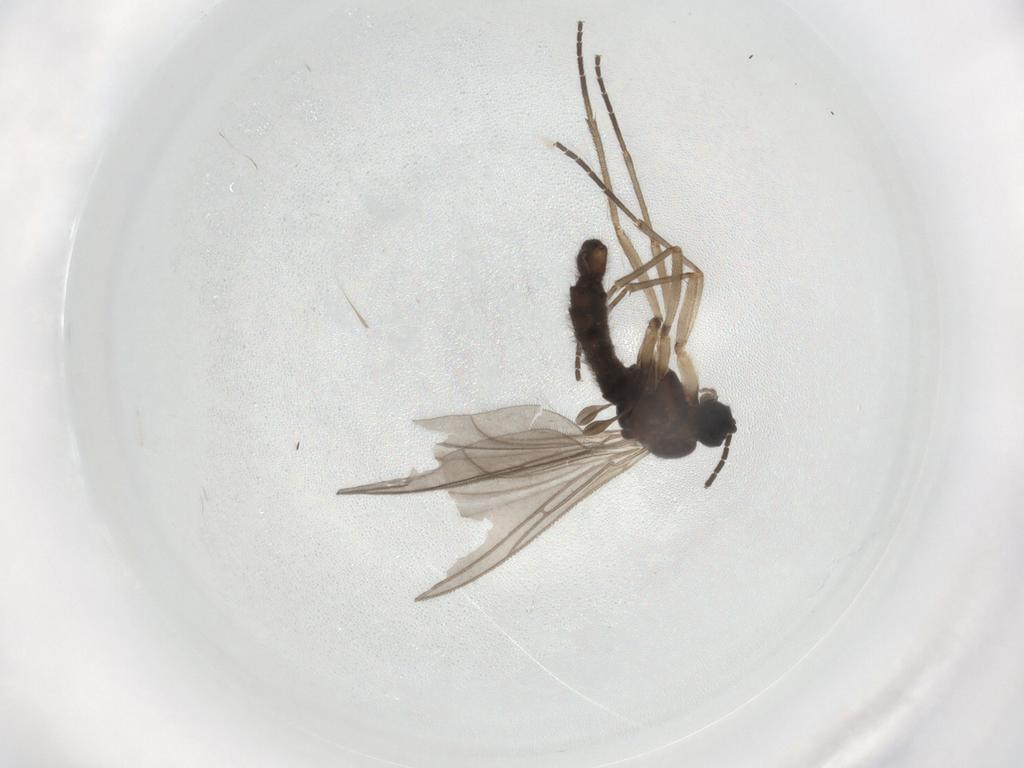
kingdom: Animalia
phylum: Arthropoda
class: Insecta
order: Diptera
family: Sciaridae
